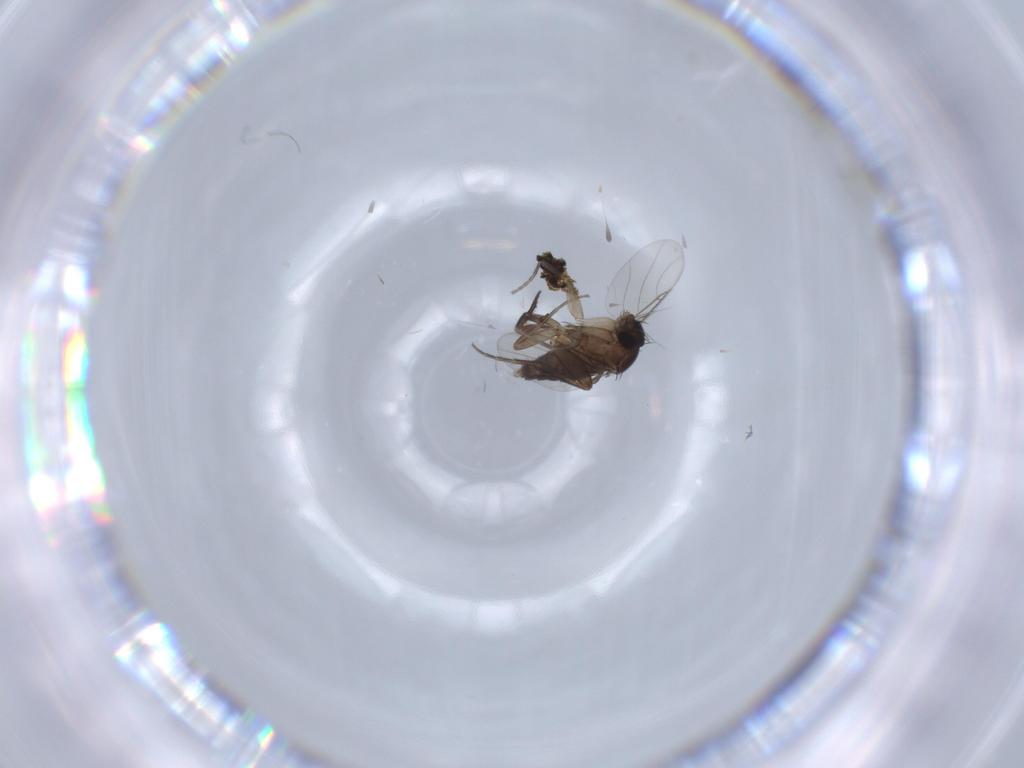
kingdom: Animalia
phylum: Arthropoda
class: Insecta
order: Diptera
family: Phoridae
